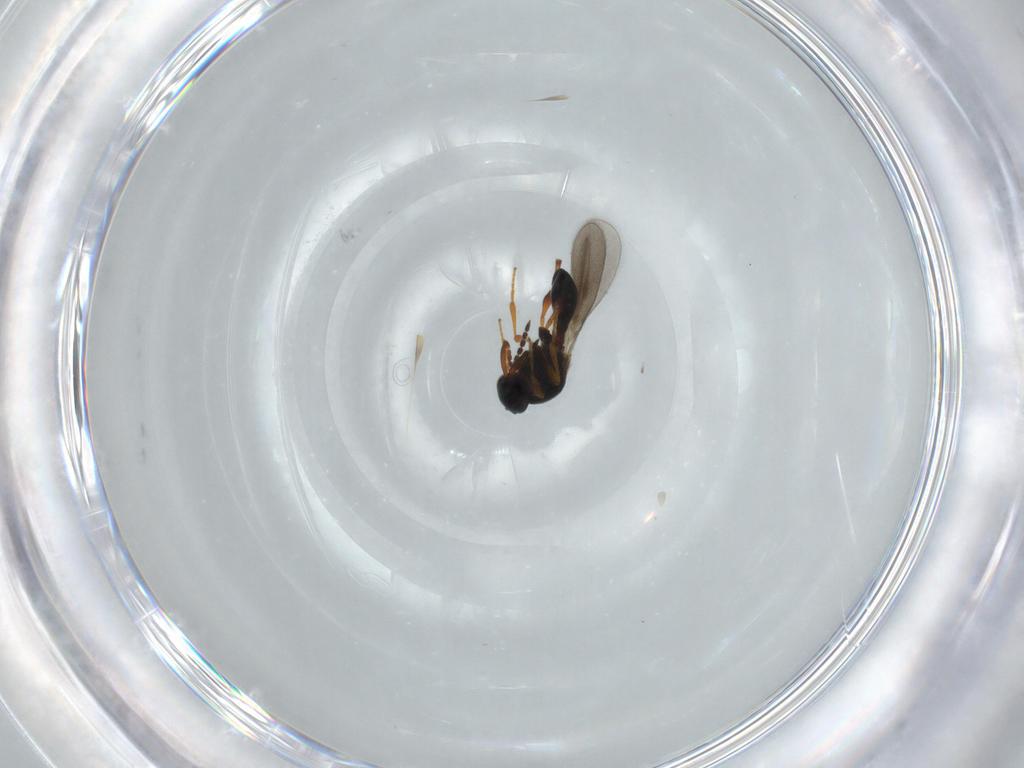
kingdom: Animalia
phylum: Arthropoda
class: Insecta
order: Hymenoptera
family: Platygastridae
